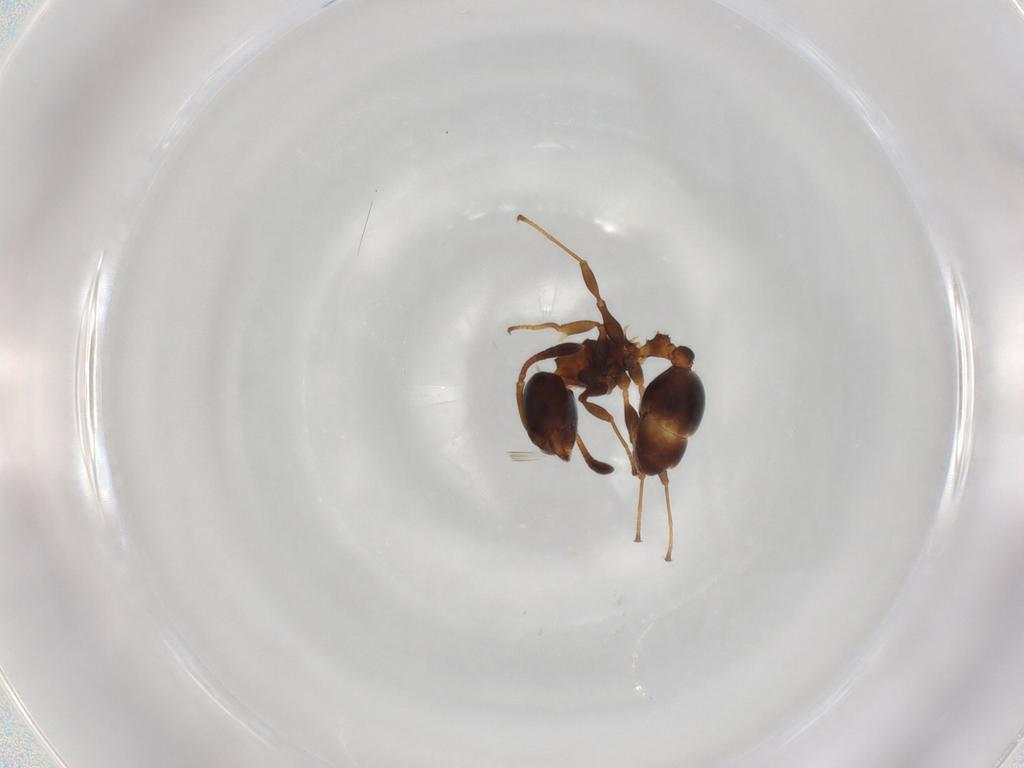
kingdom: Animalia
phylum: Arthropoda
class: Insecta
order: Hymenoptera
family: Formicidae
